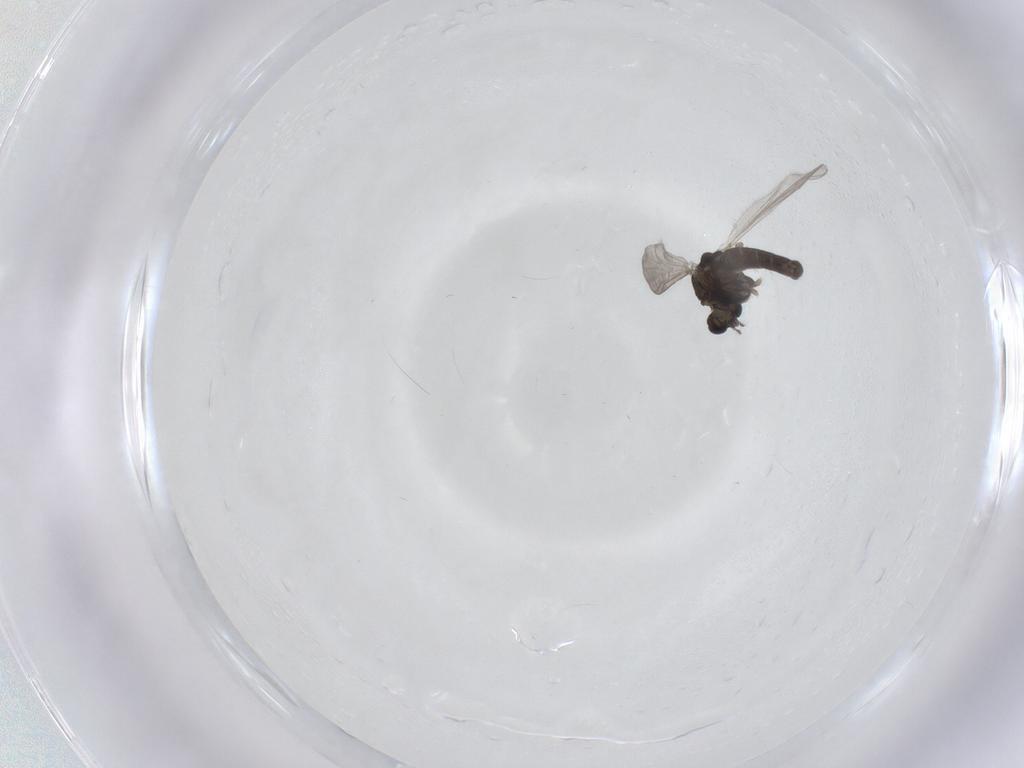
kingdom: Animalia
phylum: Arthropoda
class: Insecta
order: Diptera
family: Chironomidae
